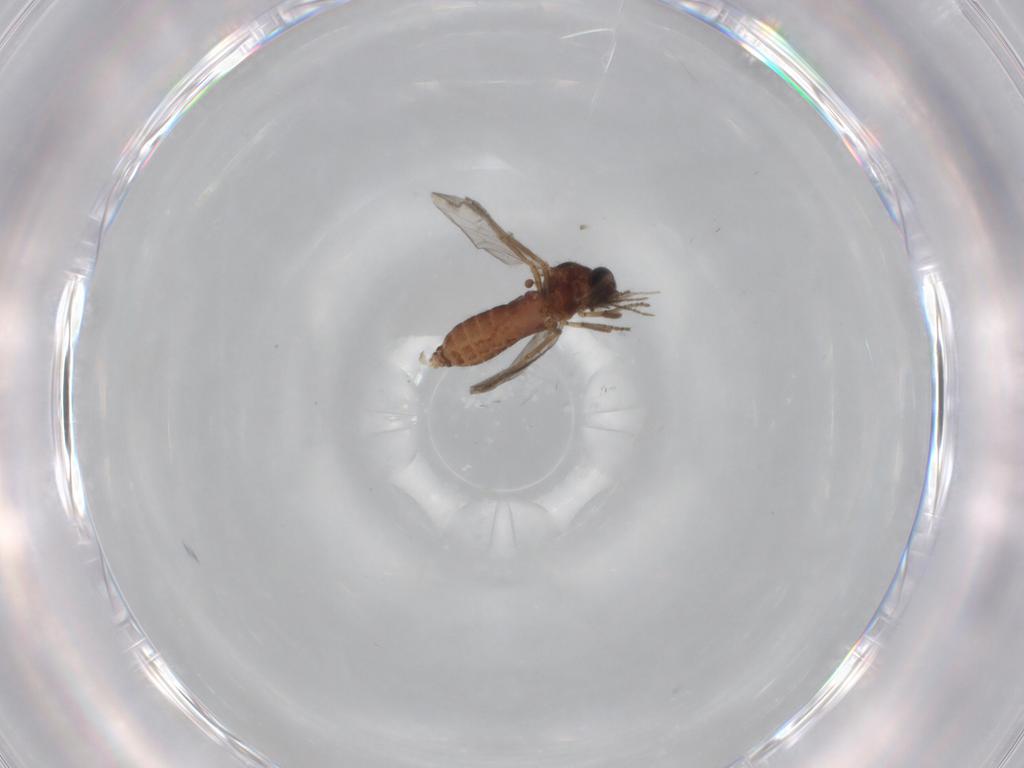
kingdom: Animalia
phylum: Arthropoda
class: Insecta
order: Diptera
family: Ceratopogonidae
